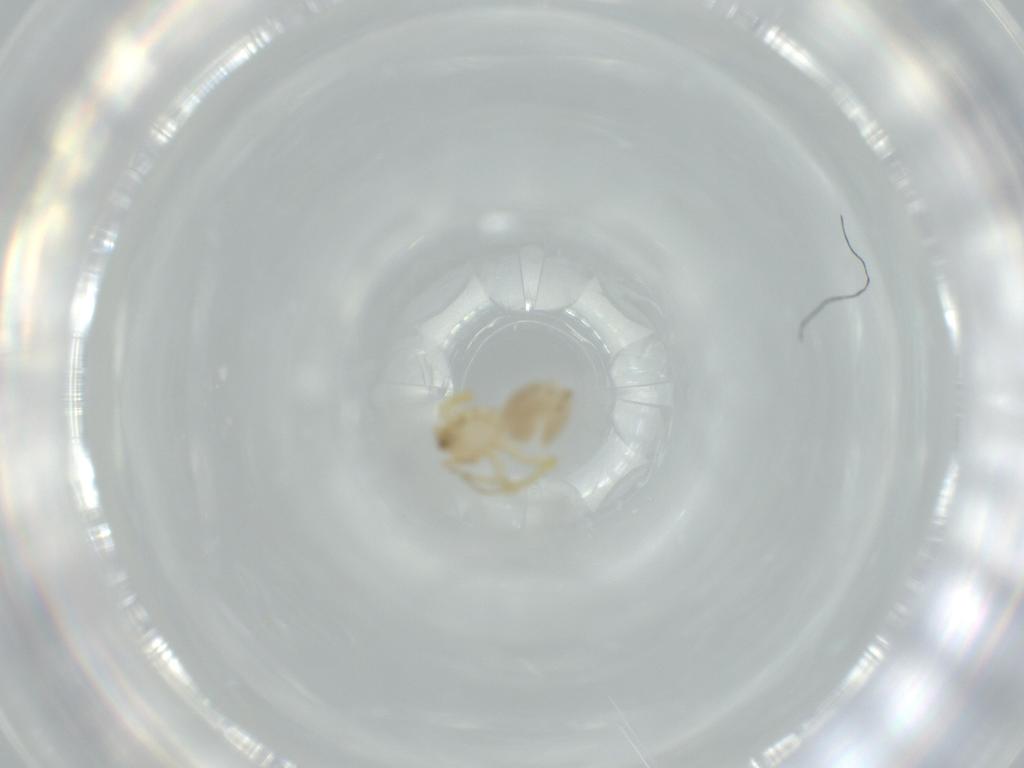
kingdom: Animalia
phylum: Arthropoda
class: Arachnida
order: Araneae
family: Oonopidae
